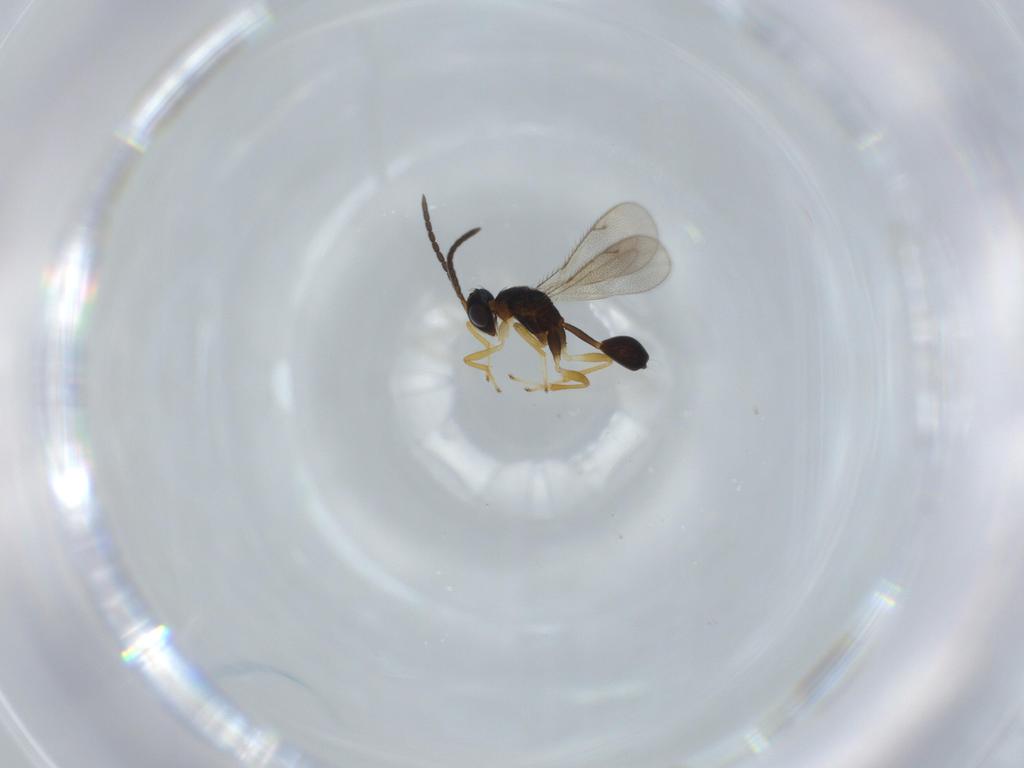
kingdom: Animalia
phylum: Arthropoda
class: Insecta
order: Hymenoptera
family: Diparidae
